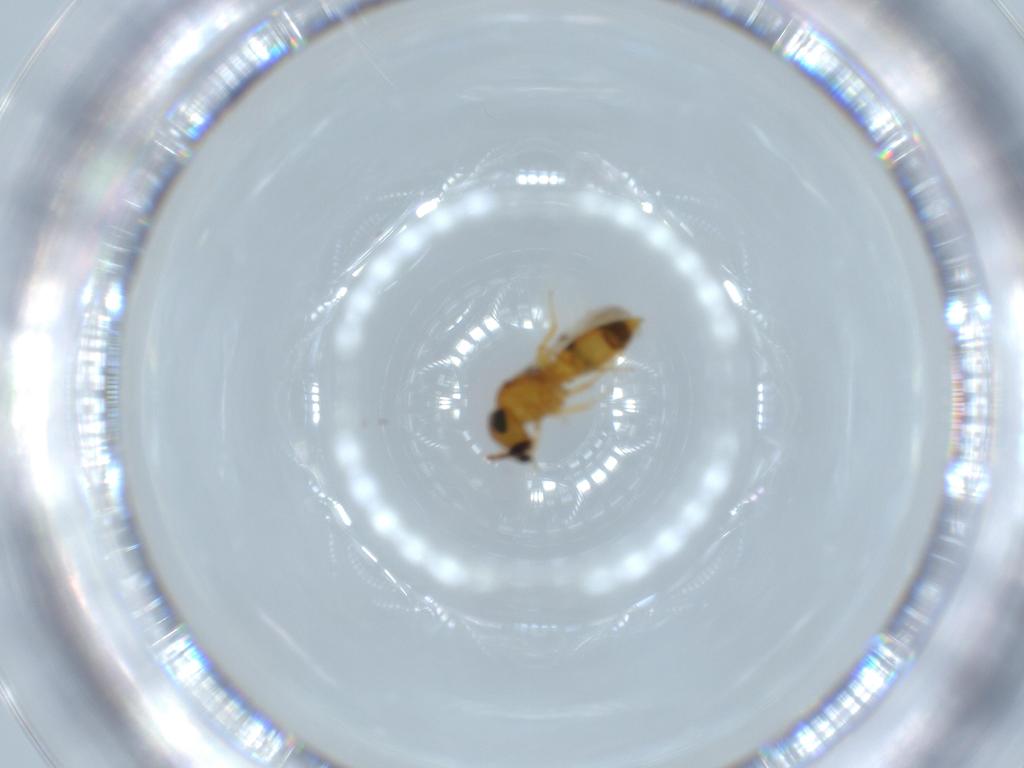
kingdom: Animalia
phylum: Arthropoda
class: Insecta
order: Hymenoptera
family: Scelionidae
